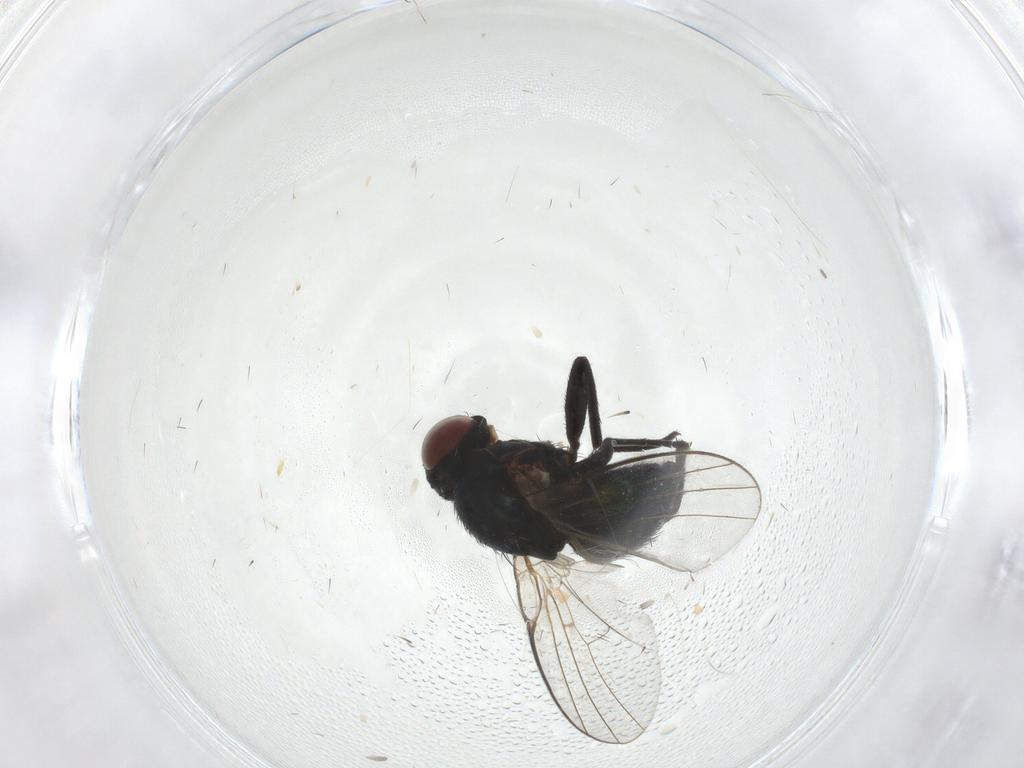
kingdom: Animalia
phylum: Arthropoda
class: Insecta
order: Diptera
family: Agromyzidae
